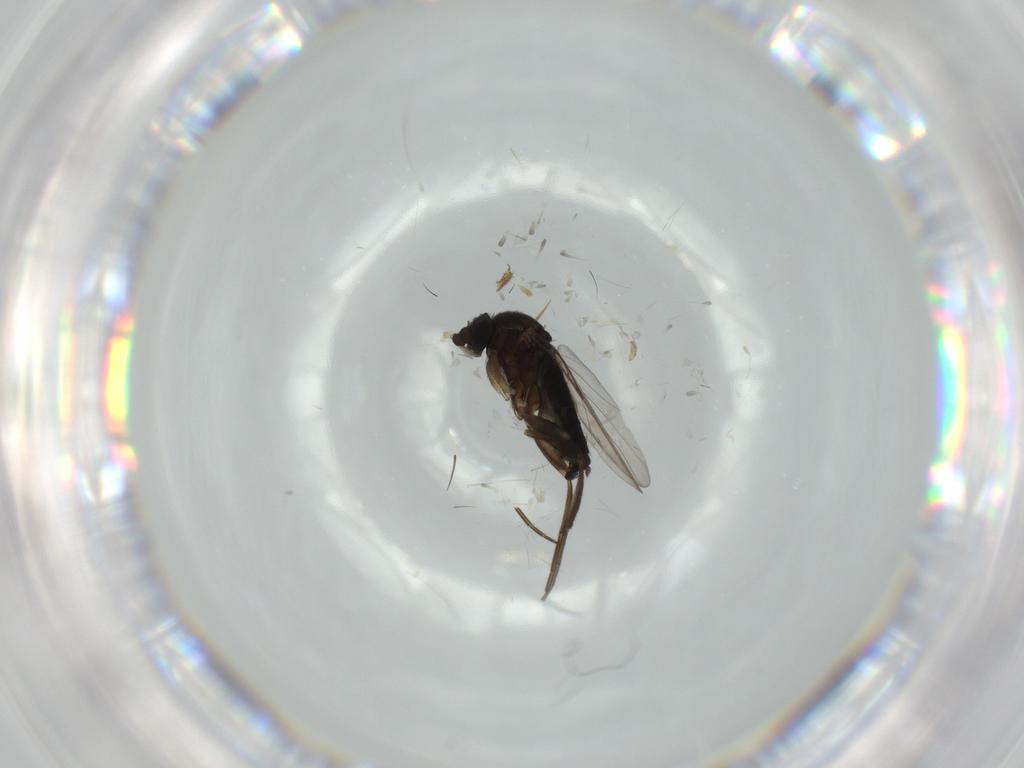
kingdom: Animalia
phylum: Arthropoda
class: Insecta
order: Diptera
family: Phoridae
